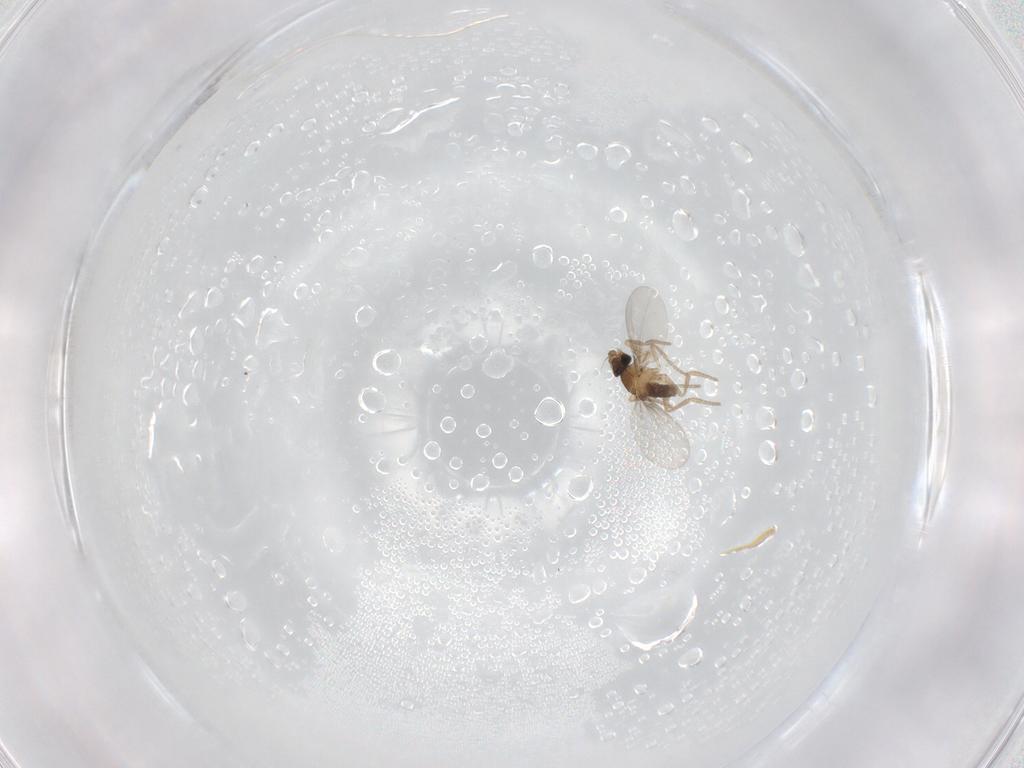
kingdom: Animalia
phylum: Arthropoda
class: Insecta
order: Diptera
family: Phoridae
